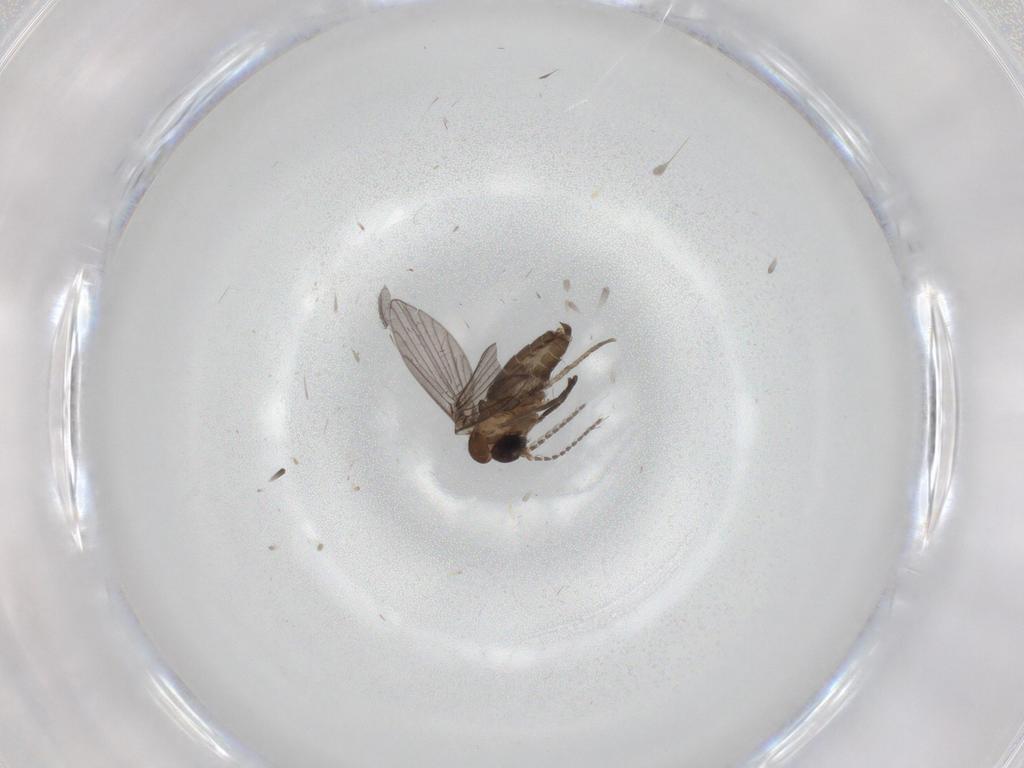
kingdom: Animalia
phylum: Arthropoda
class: Insecta
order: Diptera
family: Psychodidae
